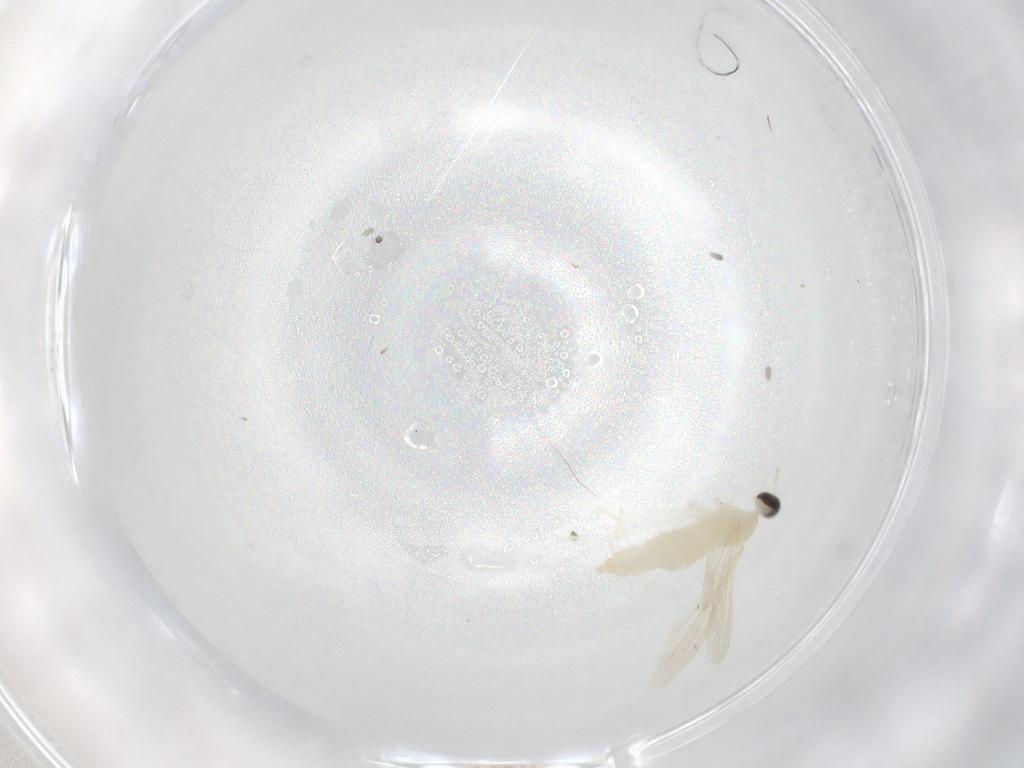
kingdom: Animalia
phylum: Arthropoda
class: Insecta
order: Diptera
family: Cecidomyiidae
